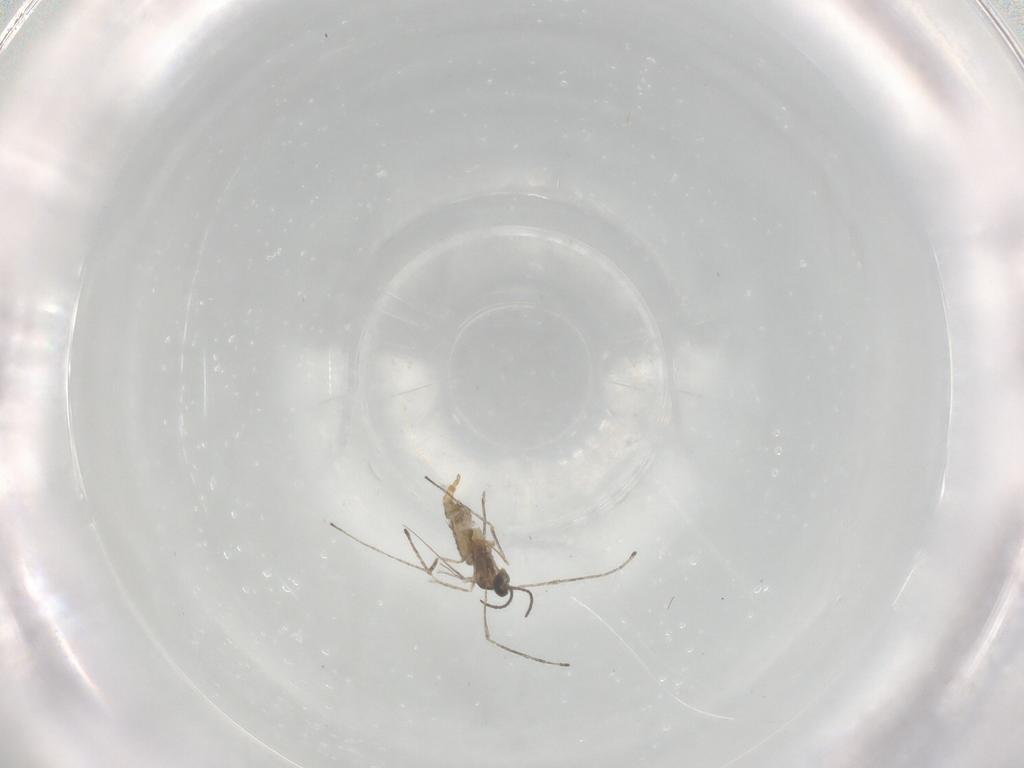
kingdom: Animalia
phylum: Arthropoda
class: Insecta
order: Diptera
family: Cecidomyiidae
